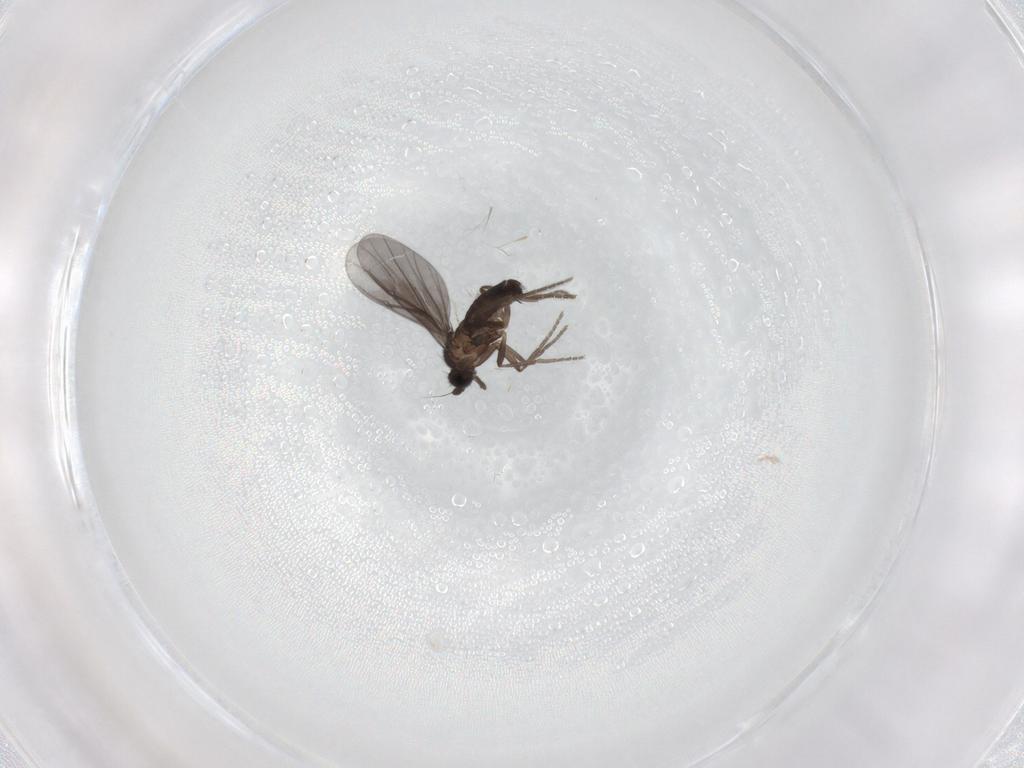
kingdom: Animalia
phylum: Arthropoda
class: Insecta
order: Diptera
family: Phoridae
